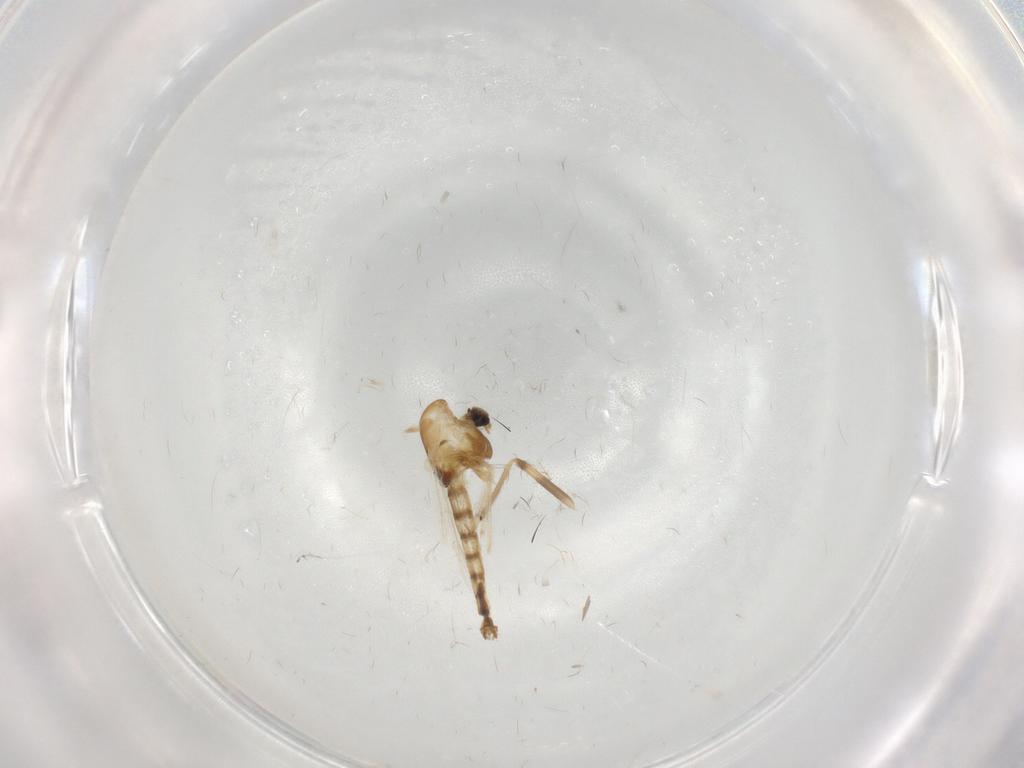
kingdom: Animalia
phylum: Arthropoda
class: Insecta
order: Diptera
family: Chironomidae
